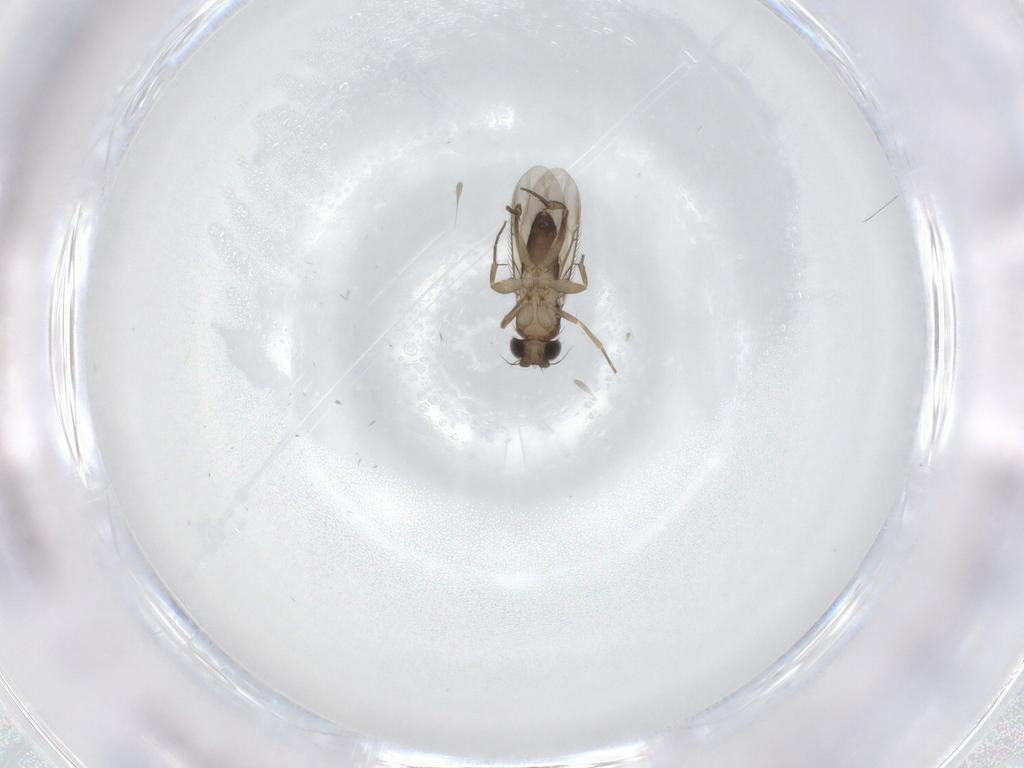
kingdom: Animalia
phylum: Arthropoda
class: Insecta
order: Diptera
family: Phoridae
